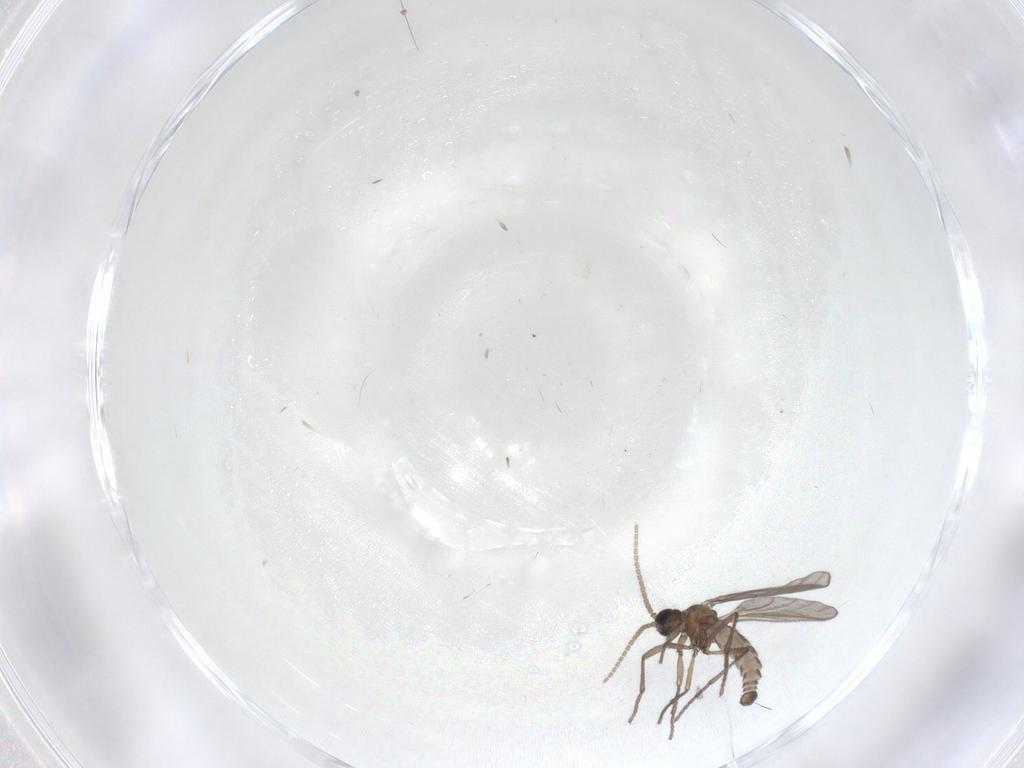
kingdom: Animalia
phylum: Arthropoda
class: Insecta
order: Diptera
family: Sciaridae
